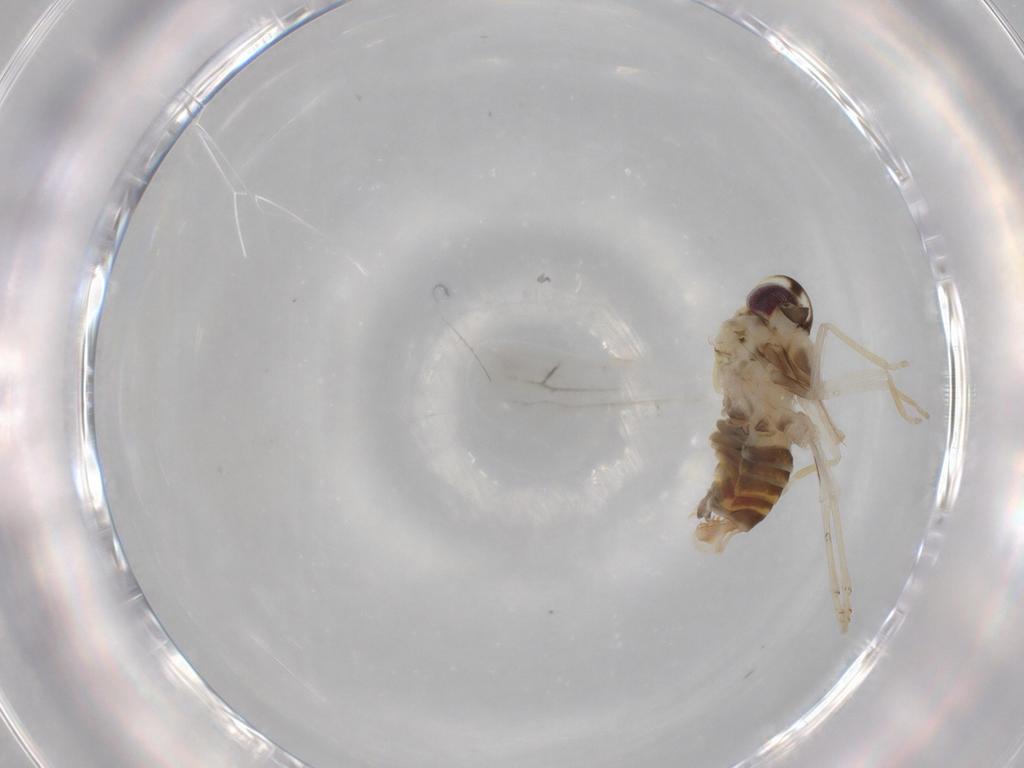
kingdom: Animalia
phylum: Arthropoda
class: Insecta
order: Hemiptera
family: Derbidae
